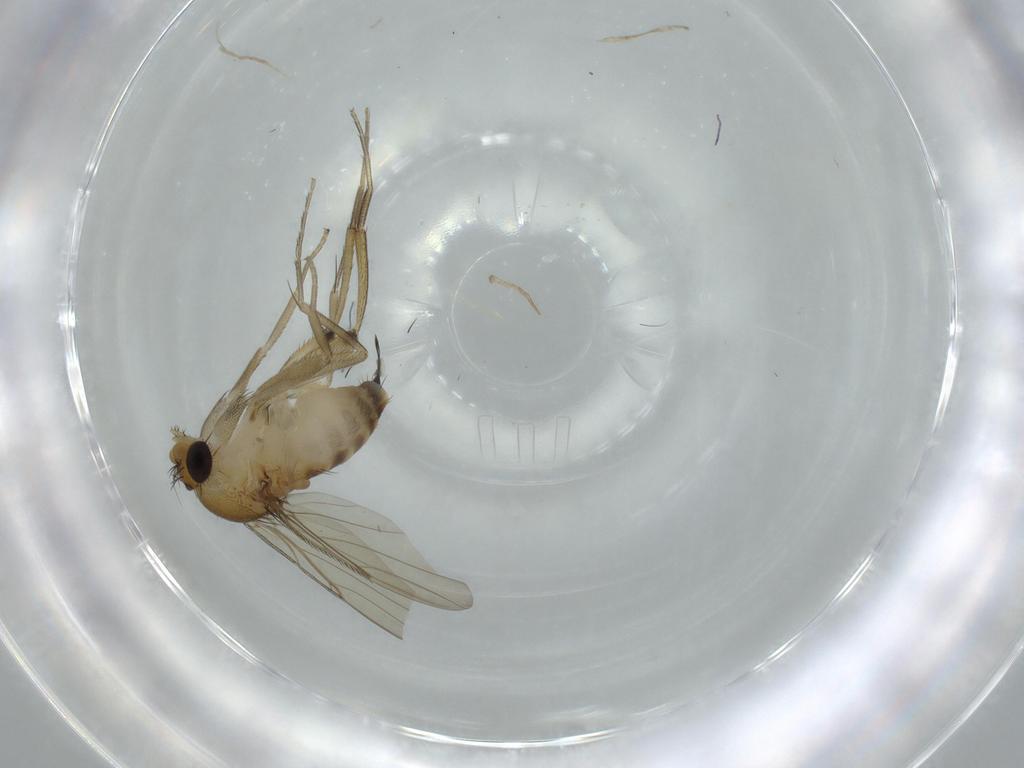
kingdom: Animalia
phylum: Arthropoda
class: Insecta
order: Diptera
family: Phoridae
